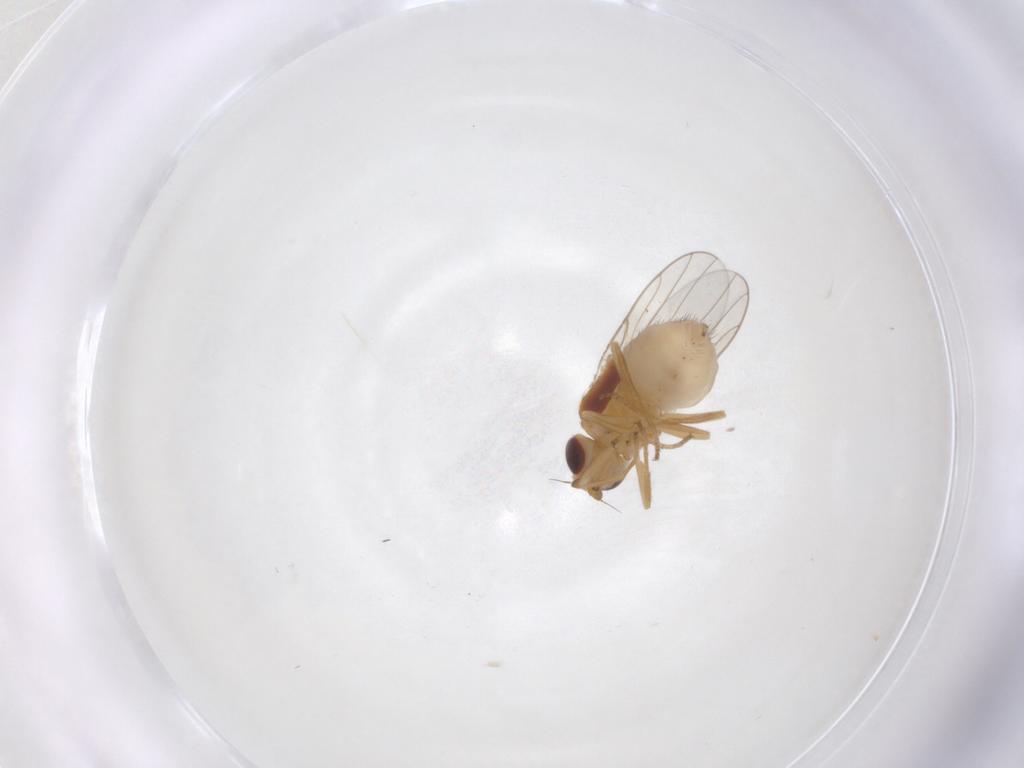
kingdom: Animalia
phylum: Arthropoda
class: Insecta
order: Diptera
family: Chloropidae
